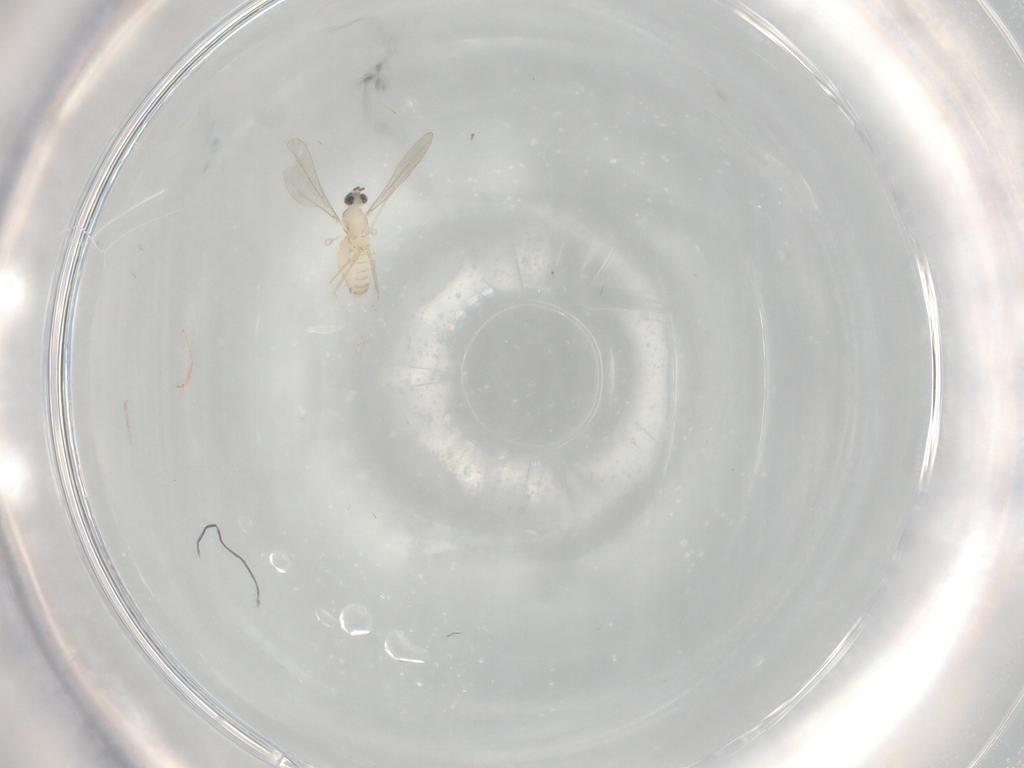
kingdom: Animalia
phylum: Arthropoda
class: Insecta
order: Diptera
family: Cecidomyiidae
